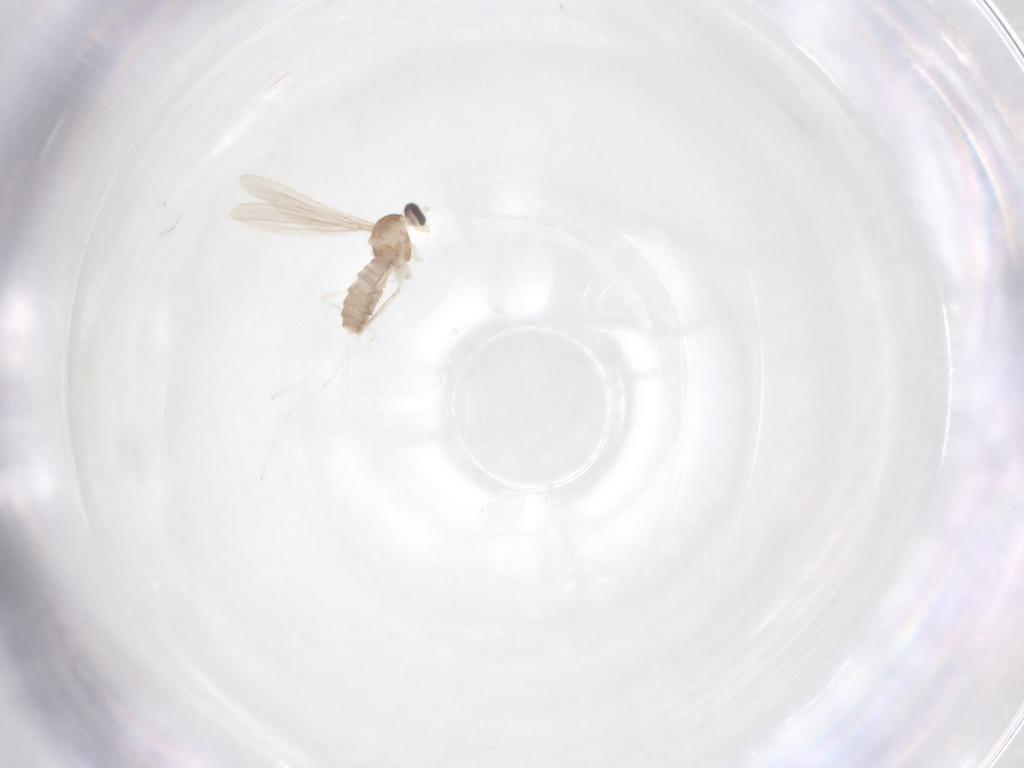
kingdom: Animalia
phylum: Arthropoda
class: Insecta
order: Diptera
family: Cecidomyiidae
